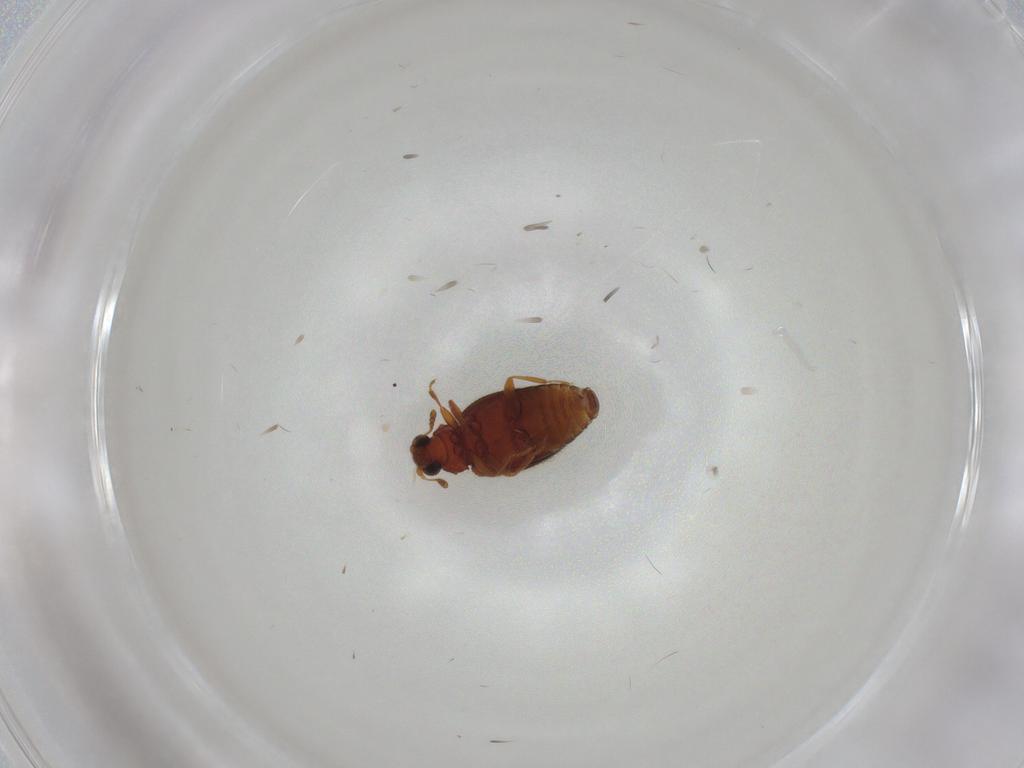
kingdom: Animalia
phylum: Arthropoda
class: Insecta
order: Coleoptera
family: Latridiidae
